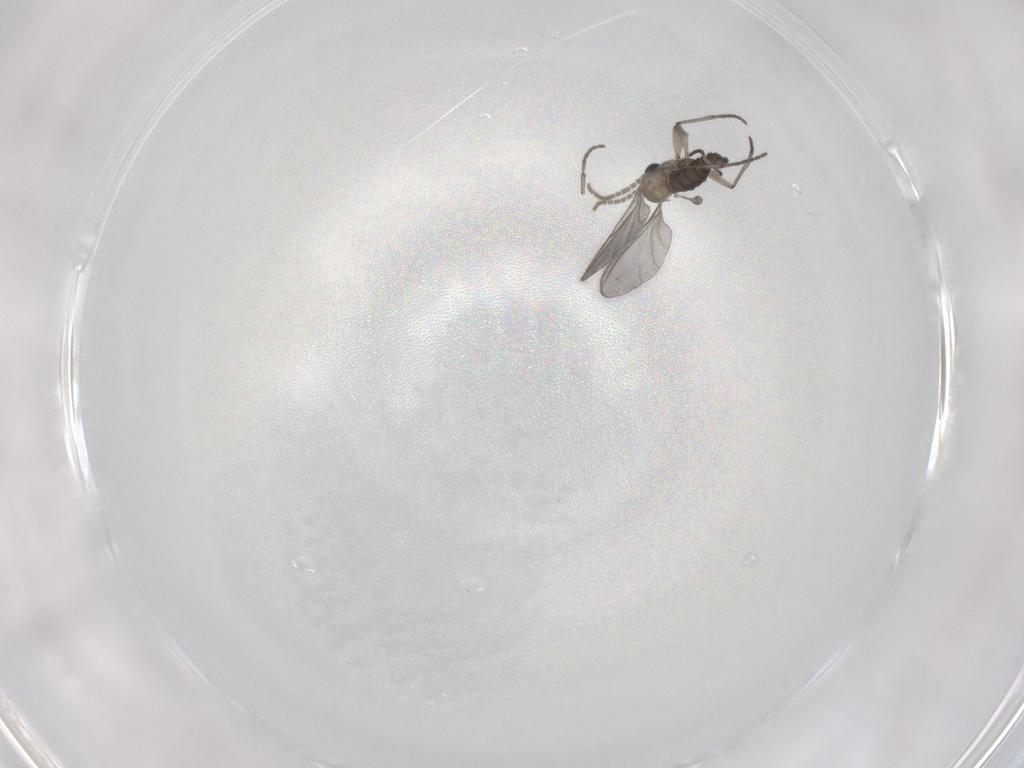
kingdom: Animalia
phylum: Arthropoda
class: Insecta
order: Diptera
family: Sciaridae
